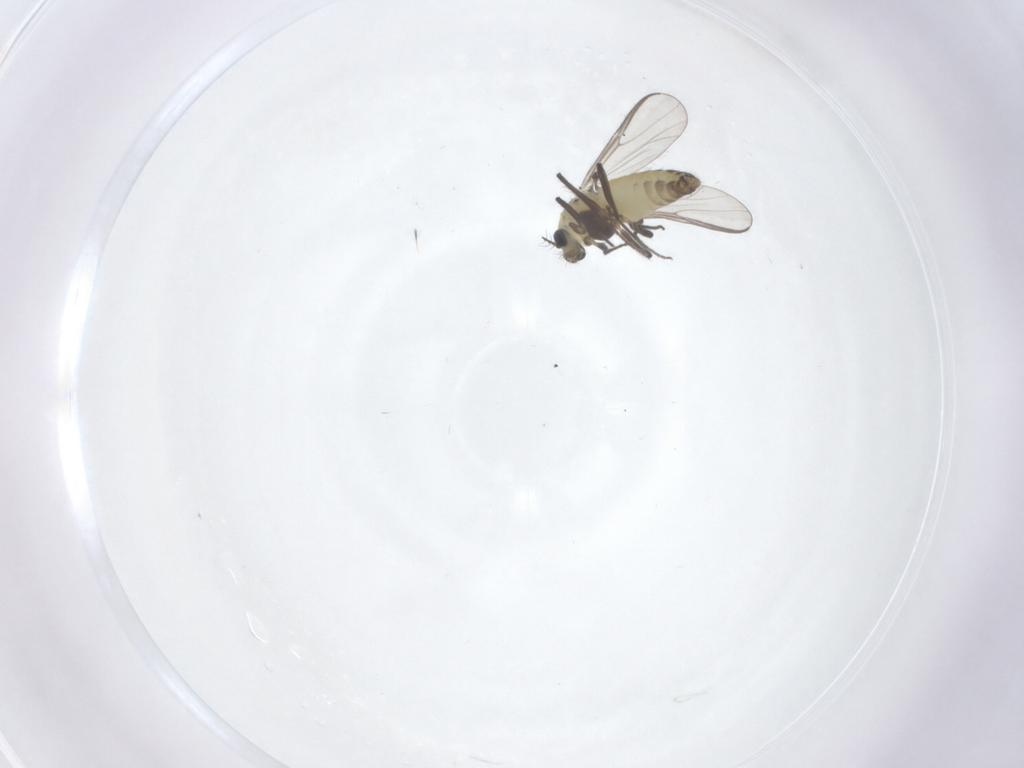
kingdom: Animalia
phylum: Arthropoda
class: Insecta
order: Diptera
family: Chironomidae
